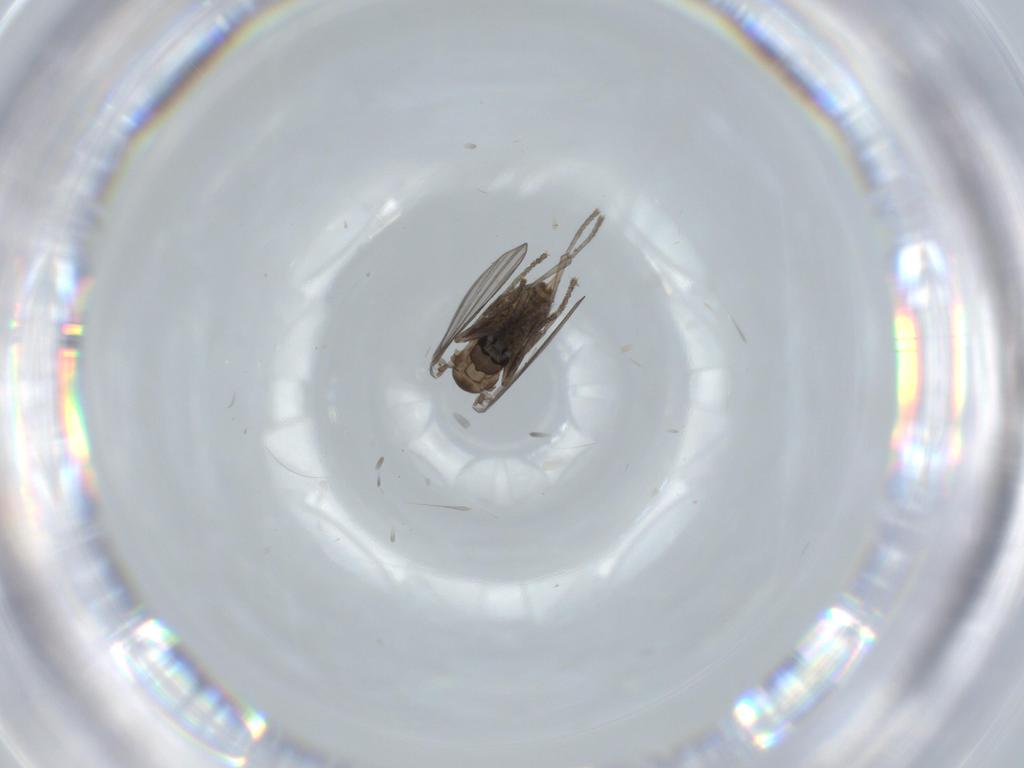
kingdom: Animalia
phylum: Arthropoda
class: Insecta
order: Diptera
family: Psychodidae
